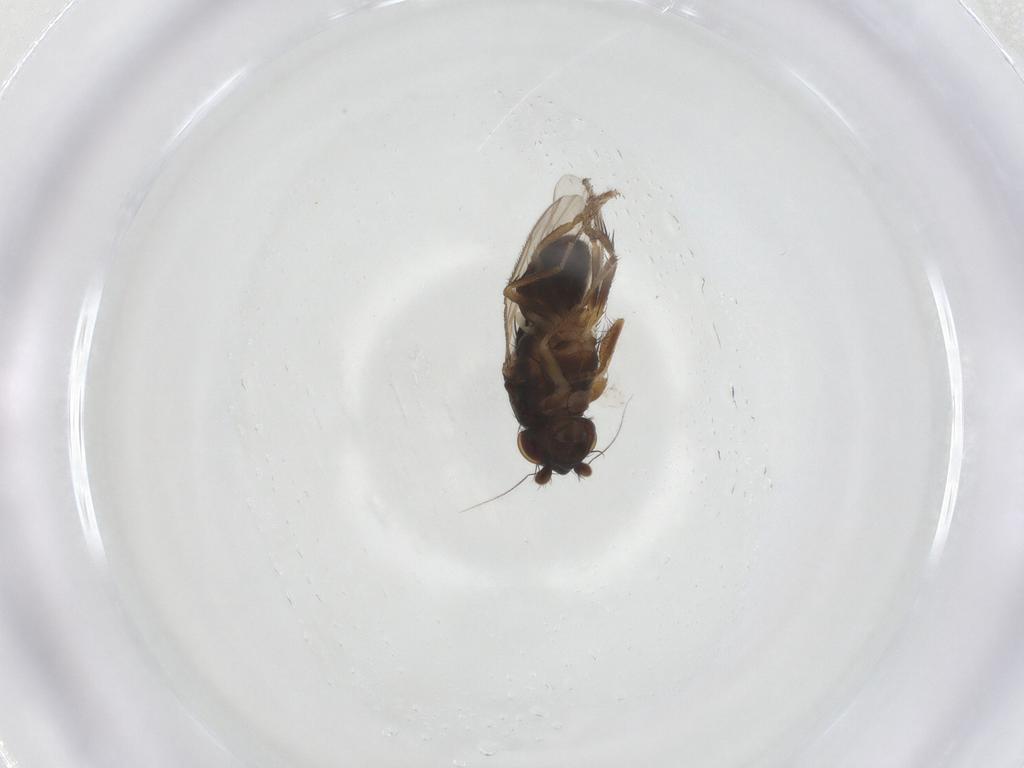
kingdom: Animalia
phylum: Arthropoda
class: Insecta
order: Diptera
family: Sphaeroceridae
